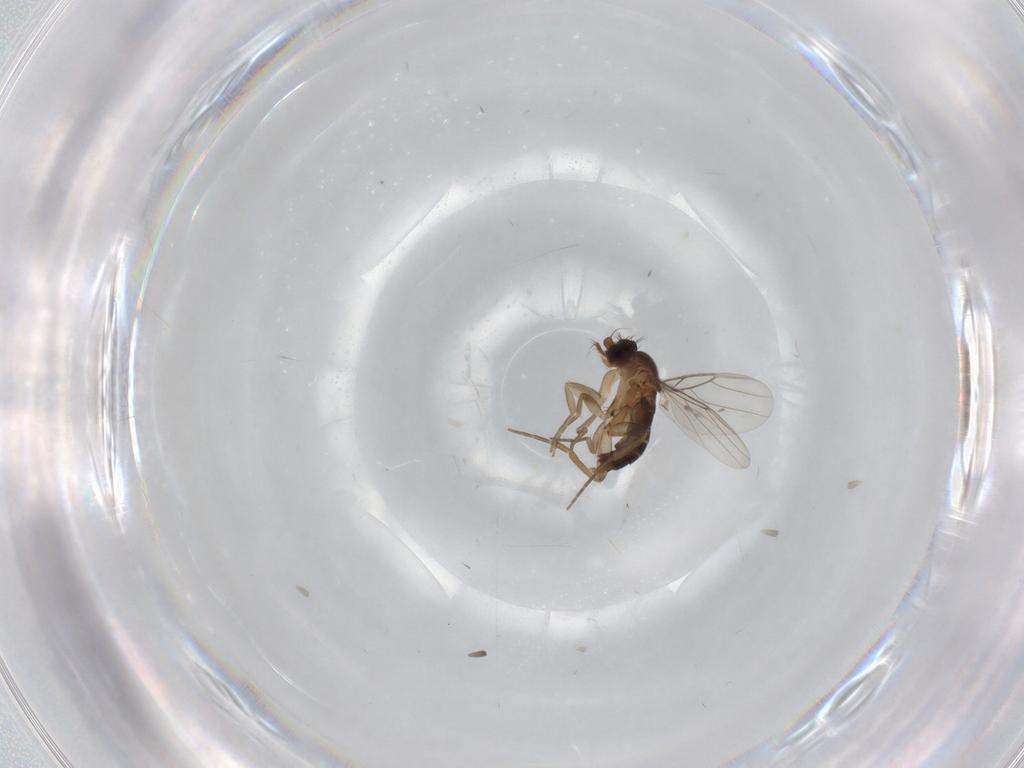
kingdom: Animalia
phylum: Arthropoda
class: Insecta
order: Diptera
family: Phoridae
